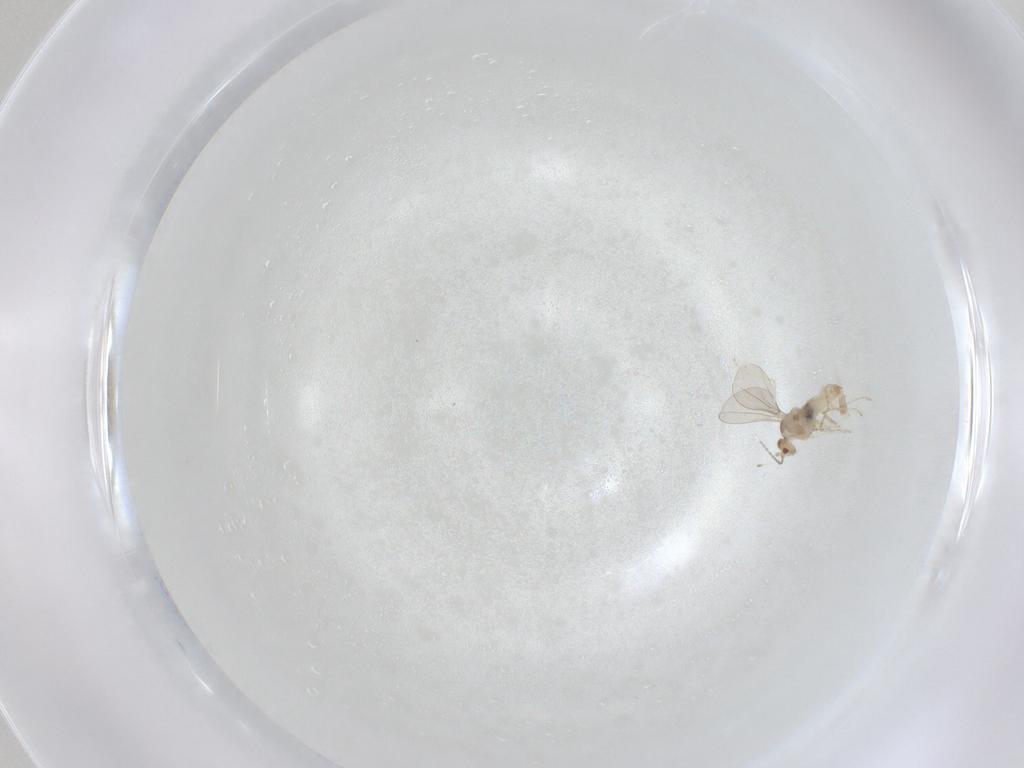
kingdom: Animalia
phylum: Arthropoda
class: Insecta
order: Diptera
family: Cecidomyiidae
